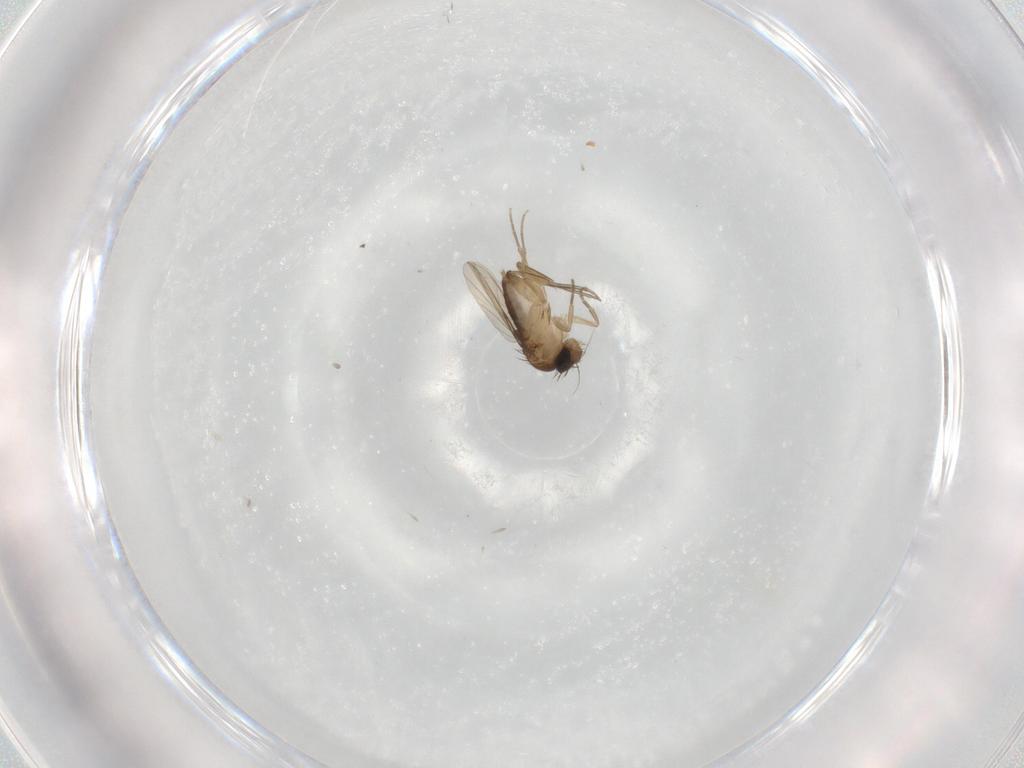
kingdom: Animalia
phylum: Arthropoda
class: Insecta
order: Diptera
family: Phoridae
